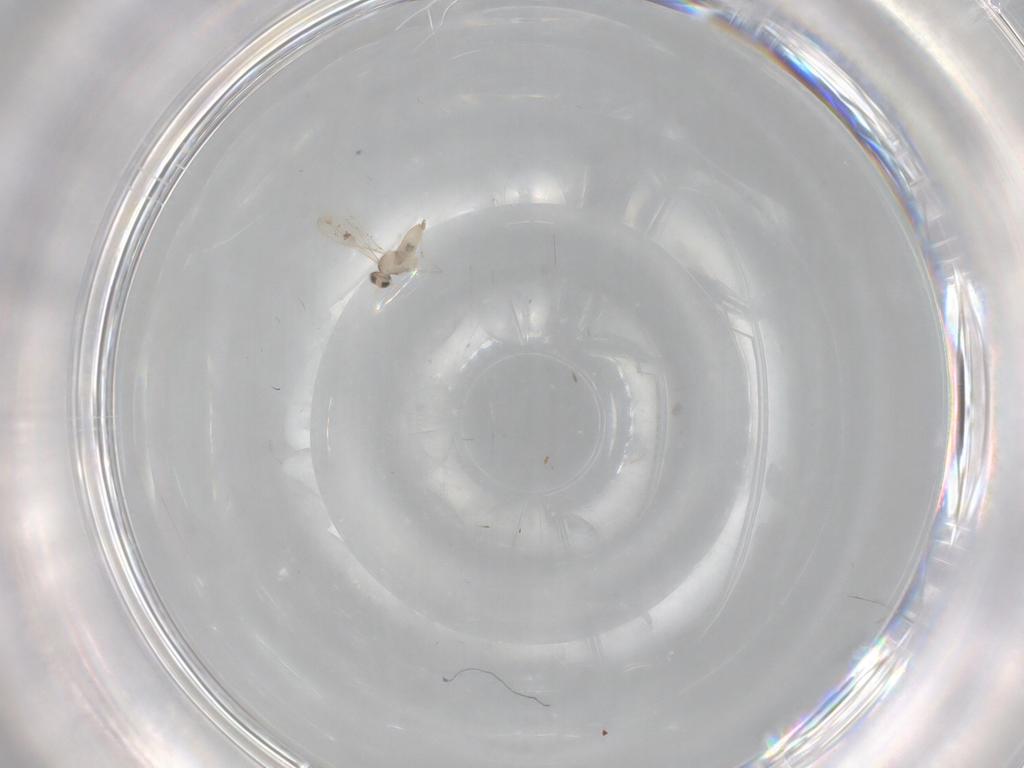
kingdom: Animalia
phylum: Arthropoda
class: Insecta
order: Diptera
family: Cecidomyiidae
